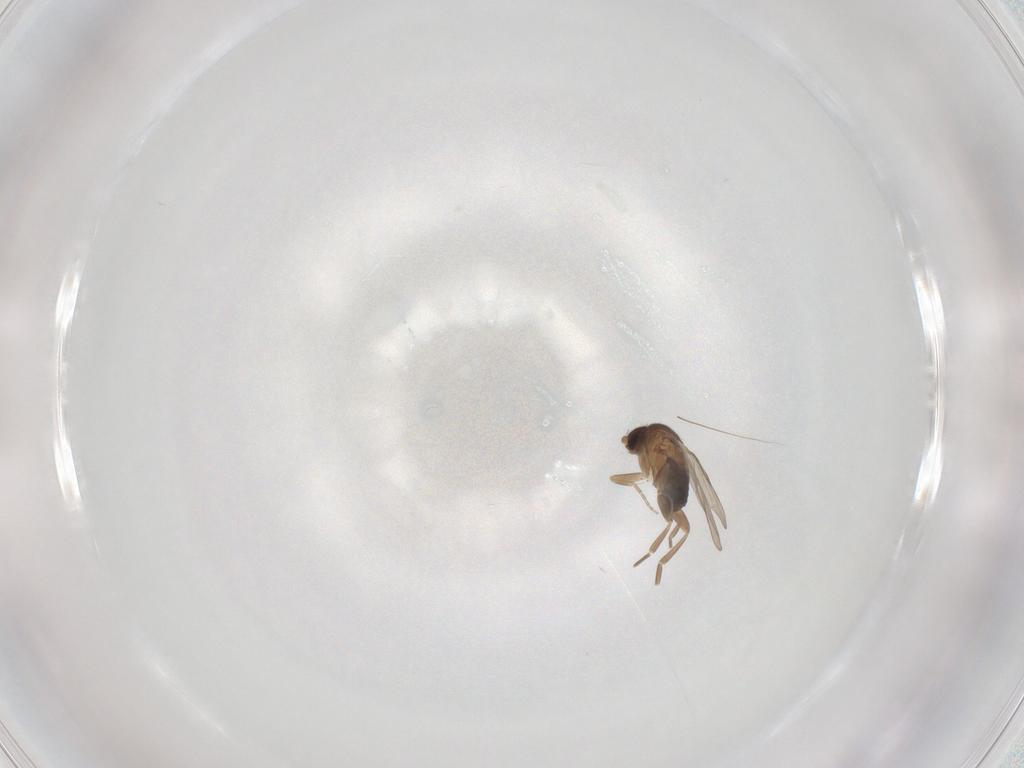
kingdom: Animalia
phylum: Arthropoda
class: Insecta
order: Diptera
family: Phoridae
